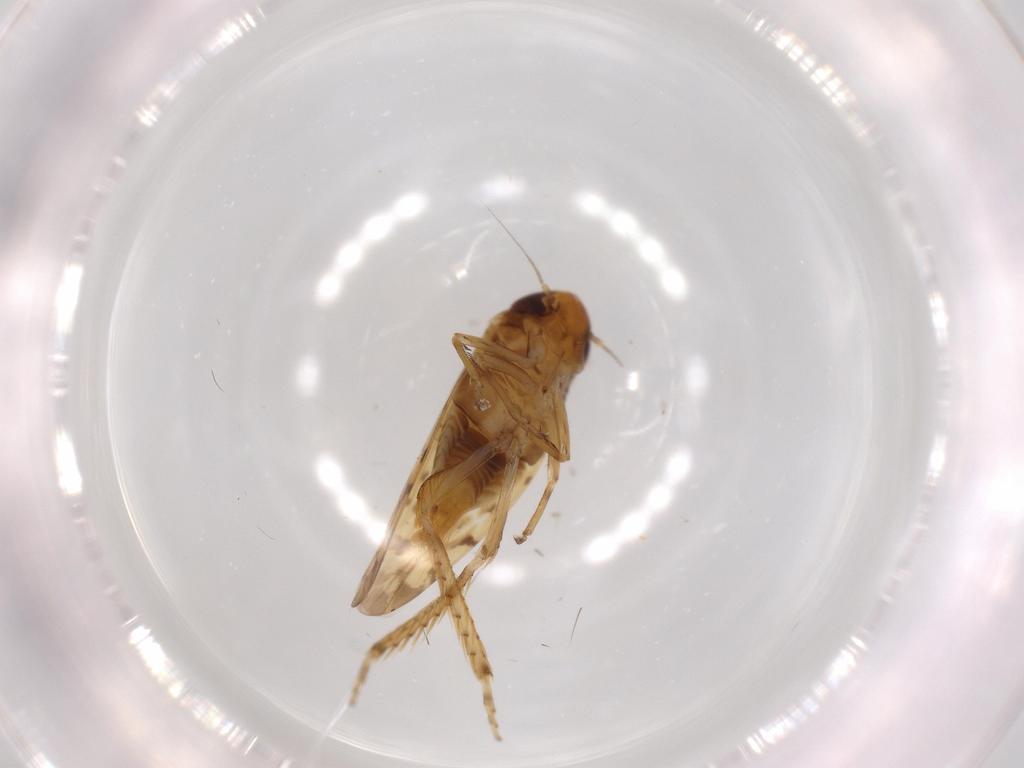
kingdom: Animalia
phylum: Arthropoda
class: Insecta
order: Hemiptera
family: Cicadellidae
